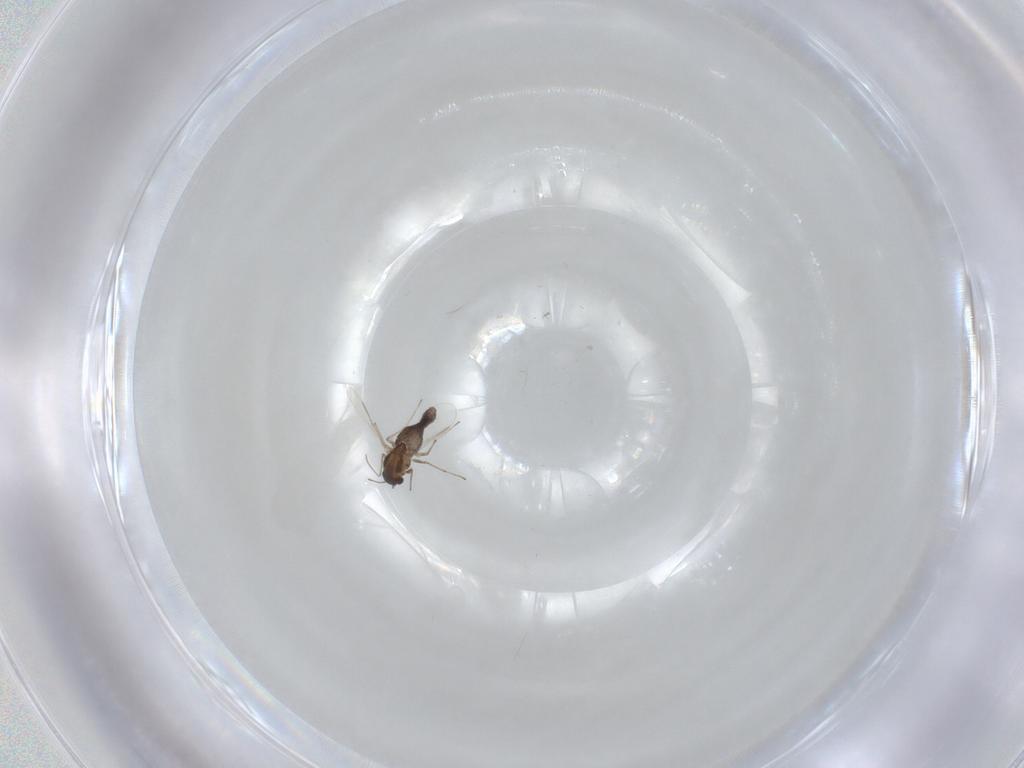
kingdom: Animalia
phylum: Arthropoda
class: Insecta
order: Diptera
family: Chironomidae
